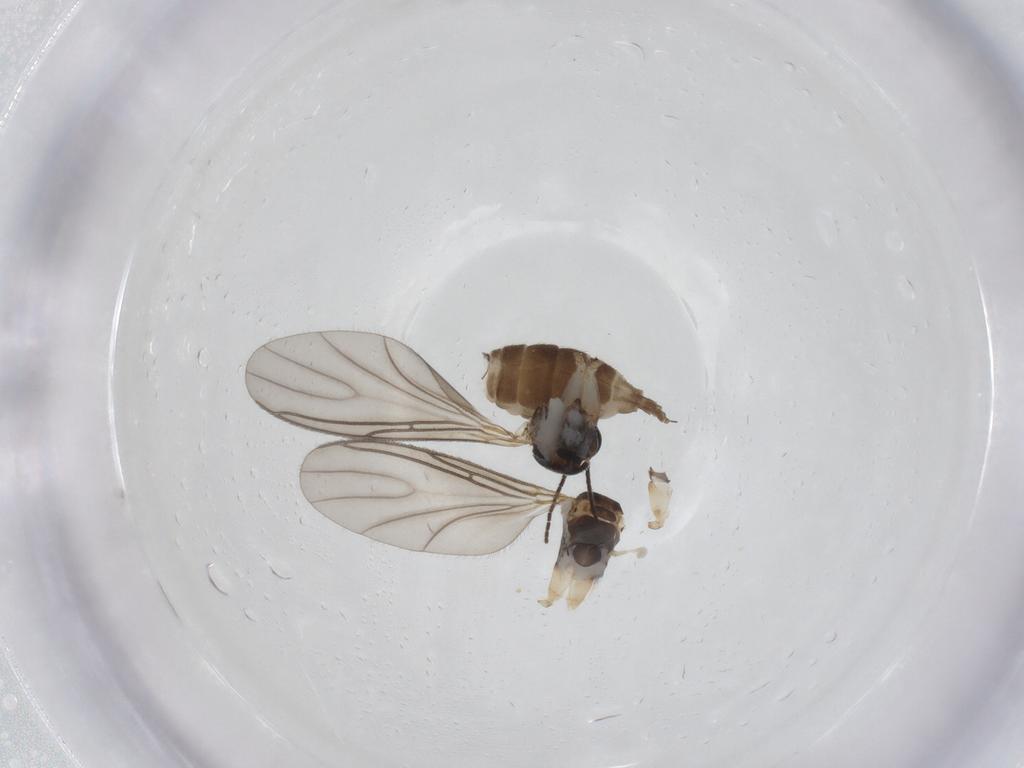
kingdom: Animalia
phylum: Arthropoda
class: Insecta
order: Diptera
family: Sciaridae
